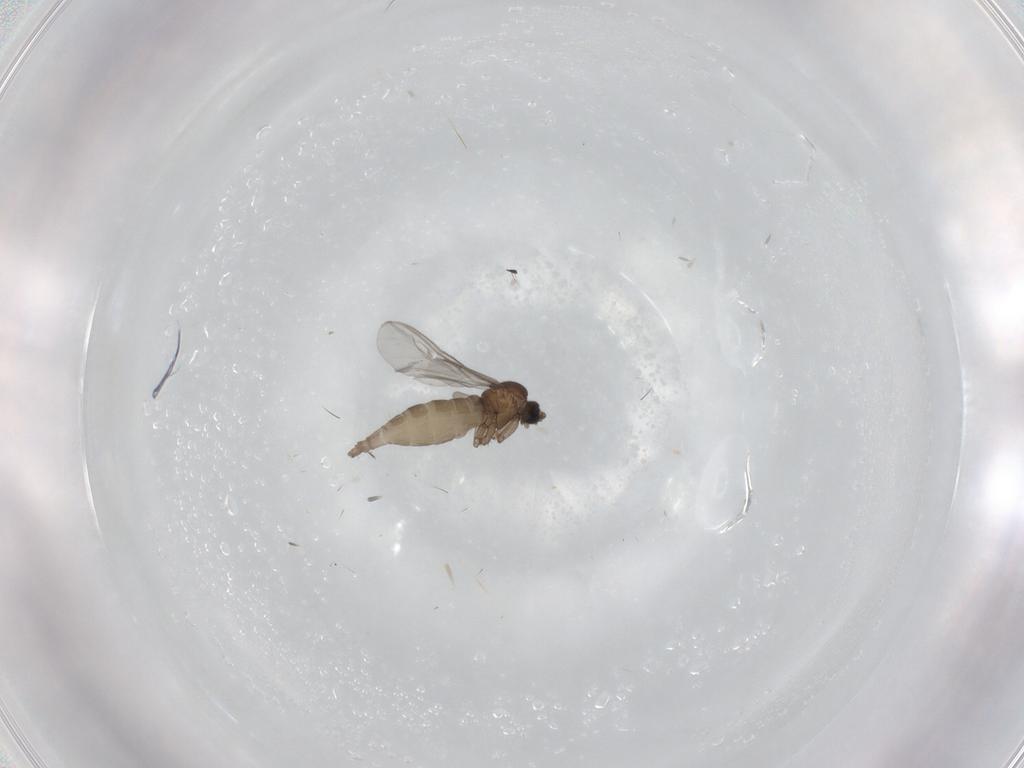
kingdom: Animalia
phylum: Arthropoda
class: Insecta
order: Diptera
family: Sciaridae
